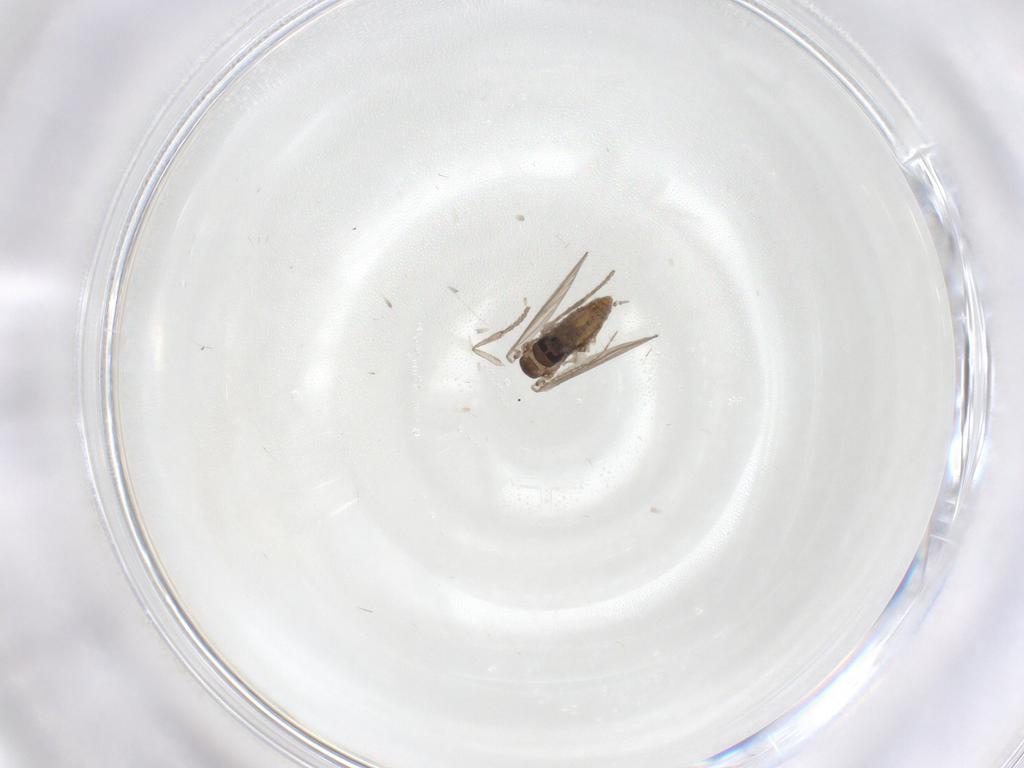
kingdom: Animalia
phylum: Arthropoda
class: Insecta
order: Diptera
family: Psychodidae
